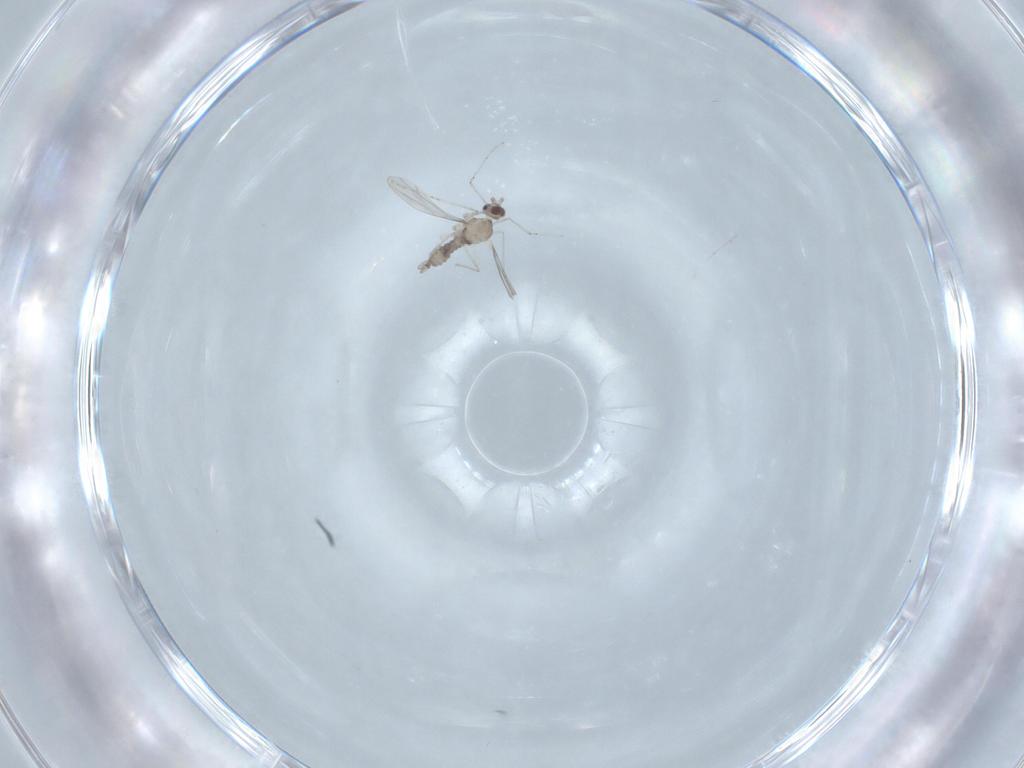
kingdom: Animalia
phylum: Arthropoda
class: Insecta
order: Diptera
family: Cecidomyiidae
